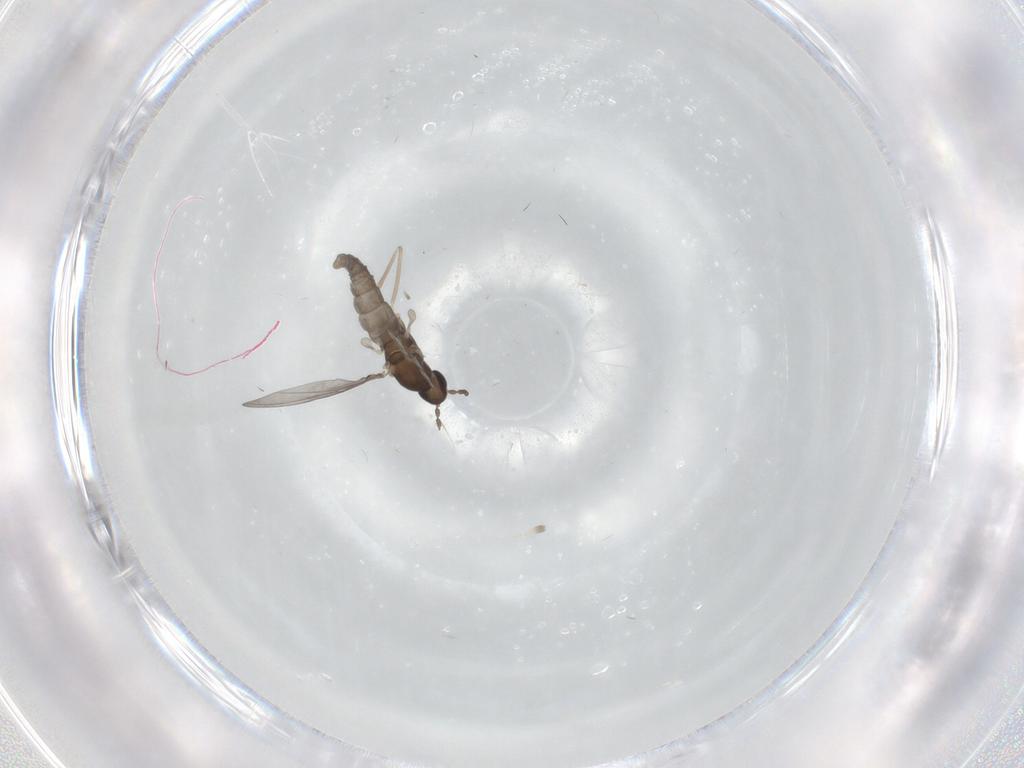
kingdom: Animalia
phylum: Arthropoda
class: Insecta
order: Diptera
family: Cecidomyiidae
